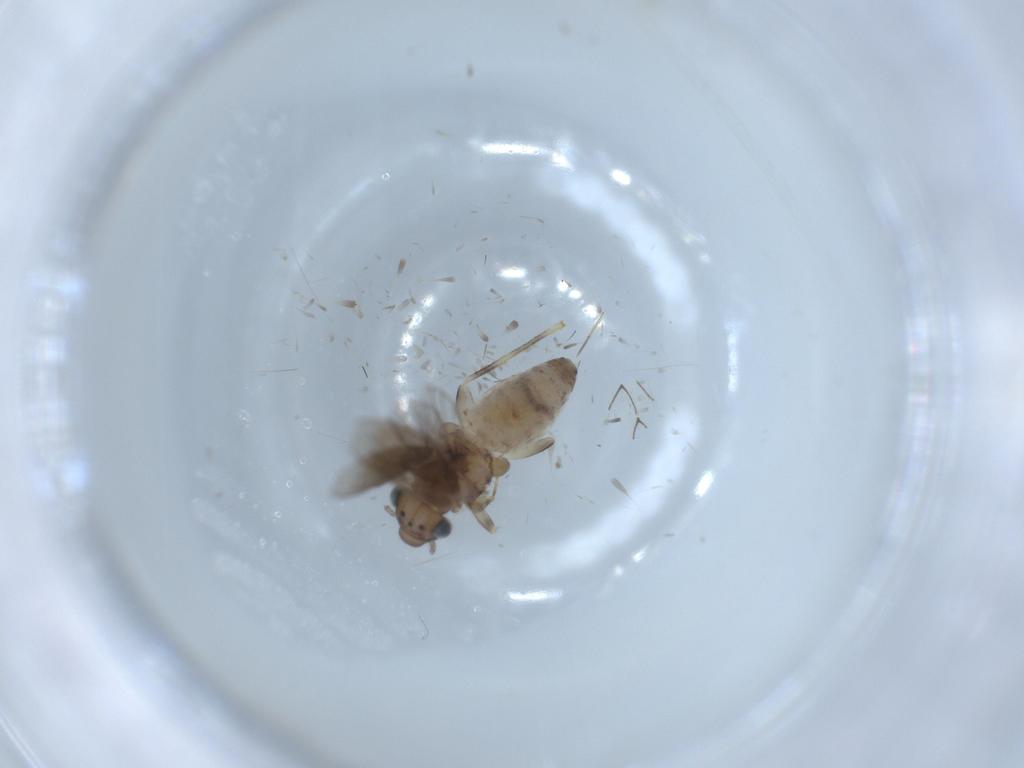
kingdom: Animalia
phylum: Arthropoda
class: Insecta
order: Psocodea
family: Lepidopsocidae
